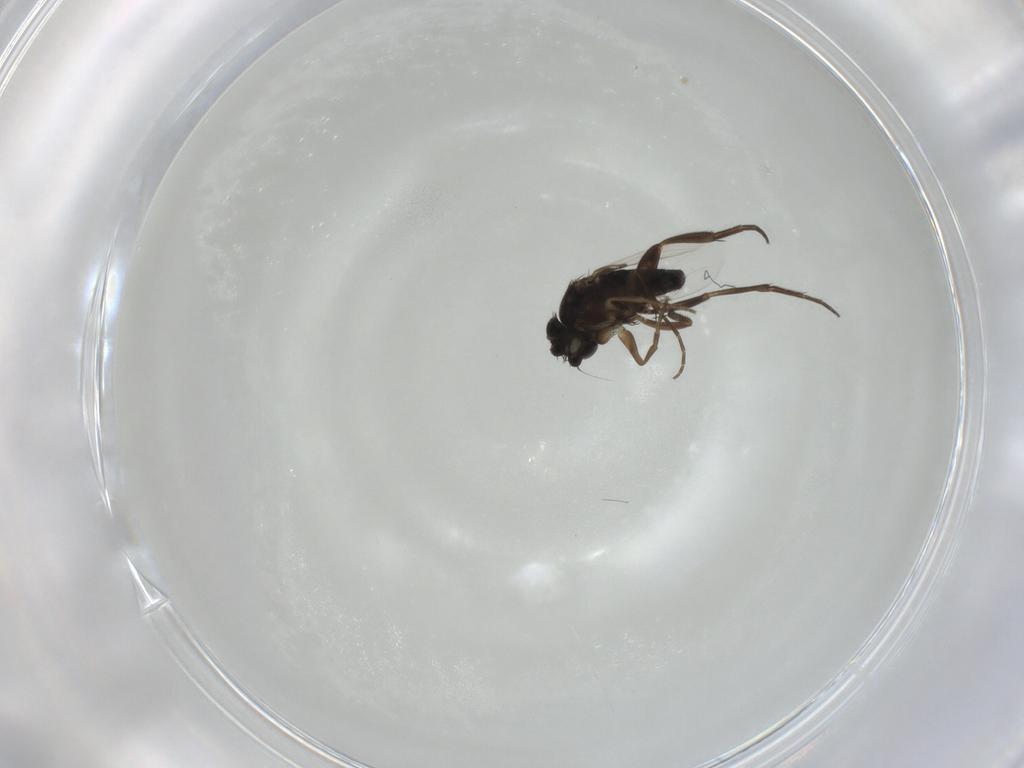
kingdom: Animalia
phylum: Arthropoda
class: Insecta
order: Diptera
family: Phoridae
